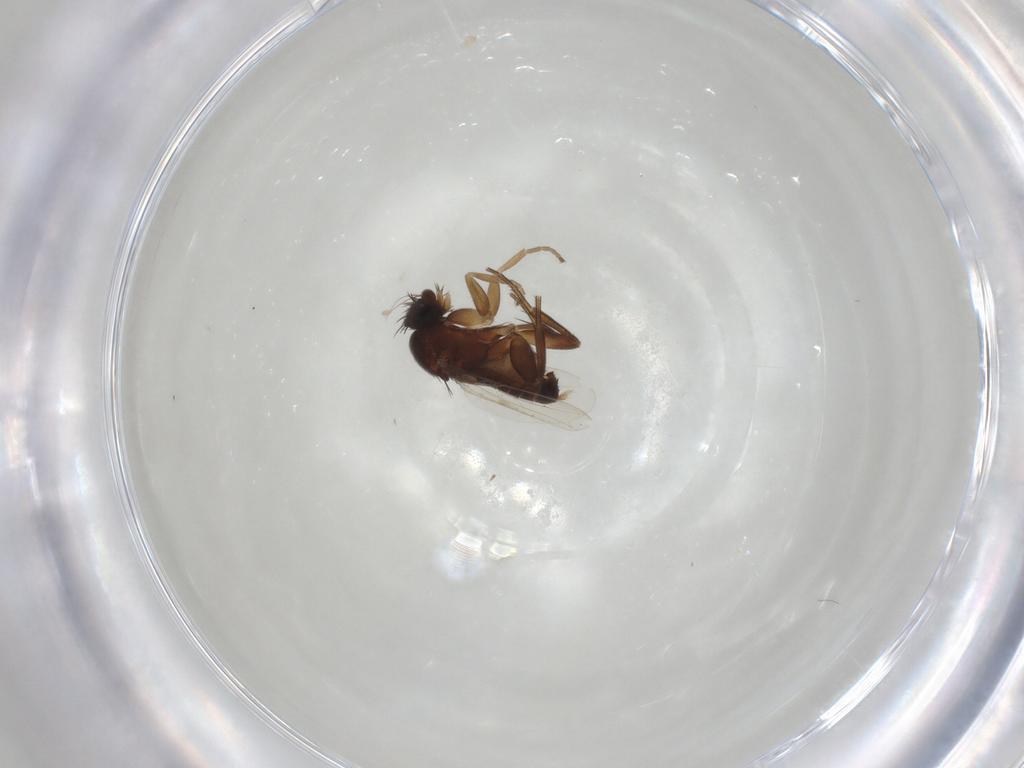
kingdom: Animalia
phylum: Arthropoda
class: Insecta
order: Diptera
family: Phoridae
